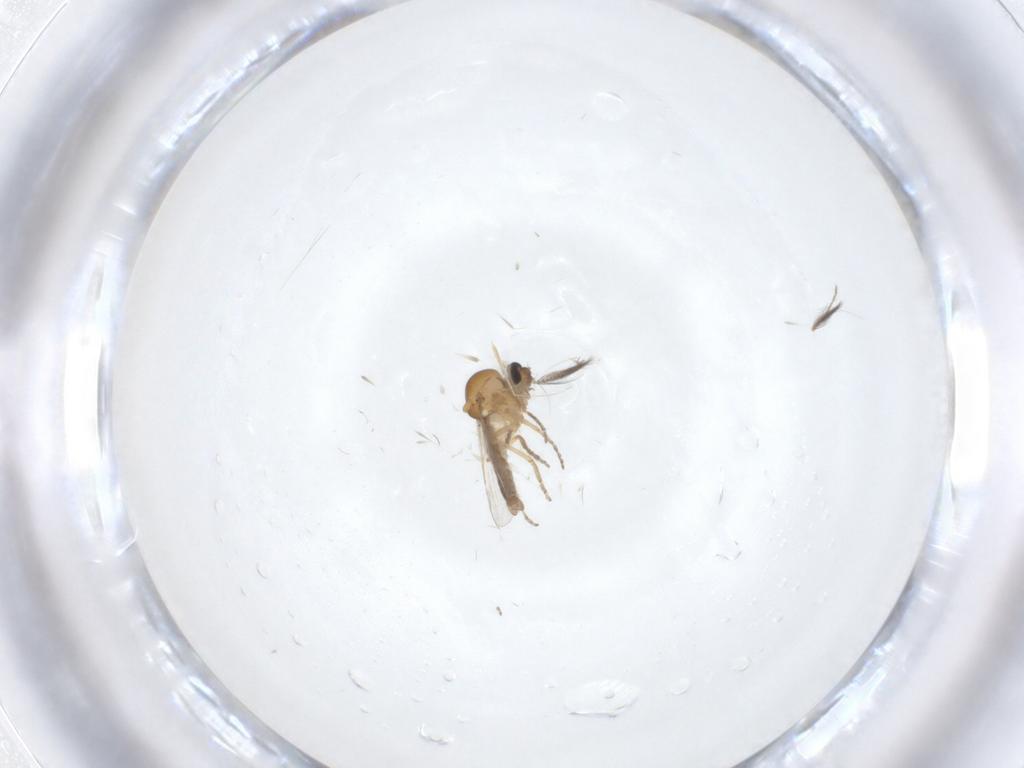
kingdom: Animalia
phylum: Arthropoda
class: Insecta
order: Diptera
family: Ceratopogonidae
